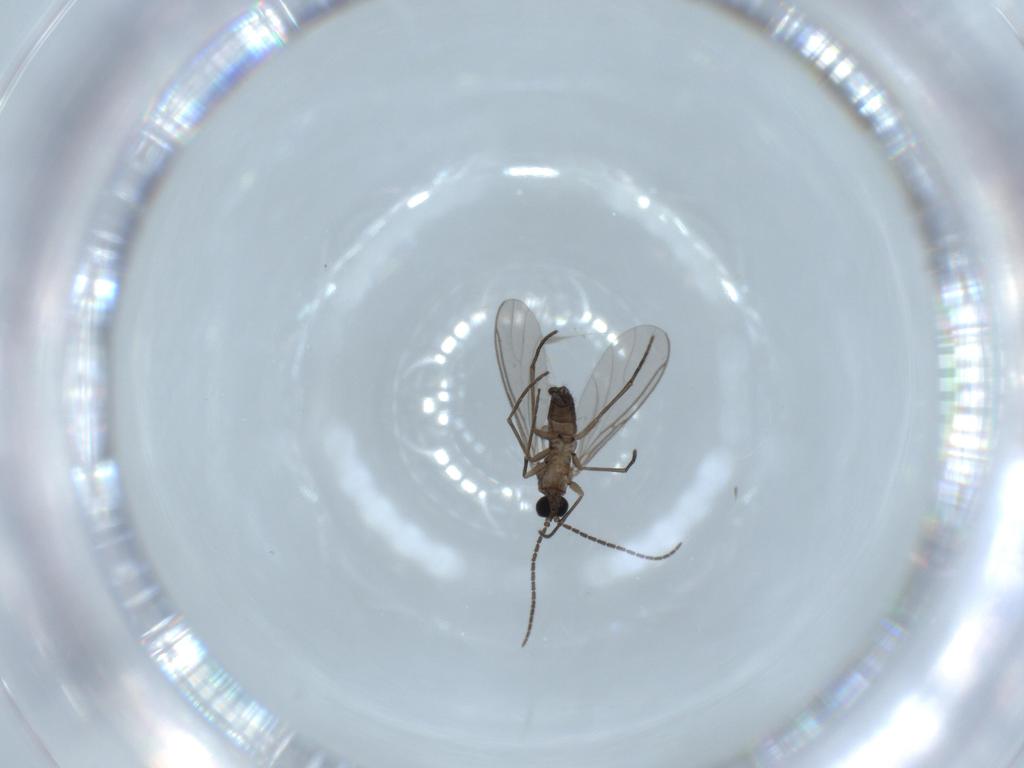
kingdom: Animalia
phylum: Arthropoda
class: Insecta
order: Diptera
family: Sciaridae
